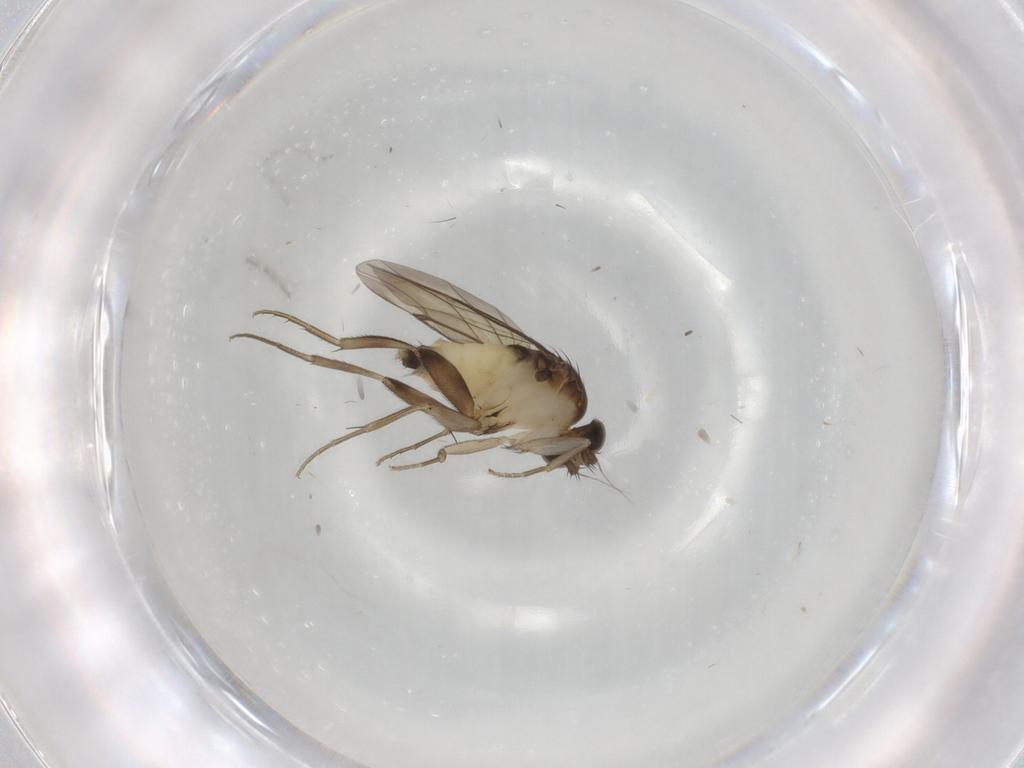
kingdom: Animalia
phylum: Arthropoda
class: Insecta
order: Diptera
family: Phoridae
